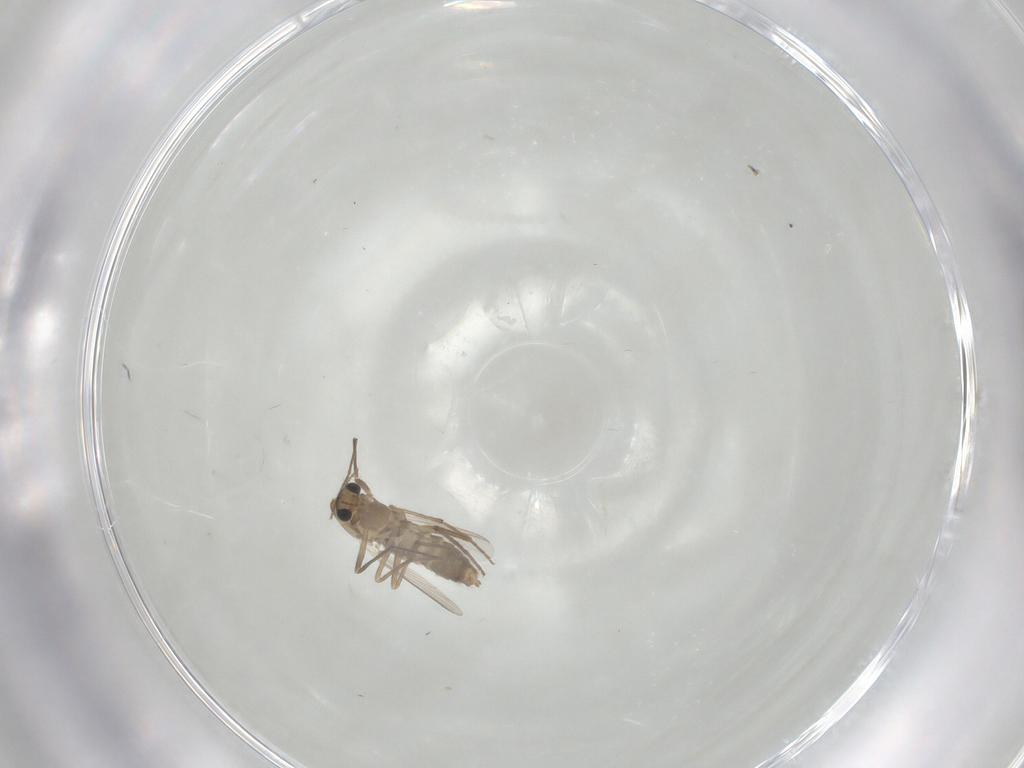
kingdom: Animalia
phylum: Arthropoda
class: Insecta
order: Diptera
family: Chironomidae
